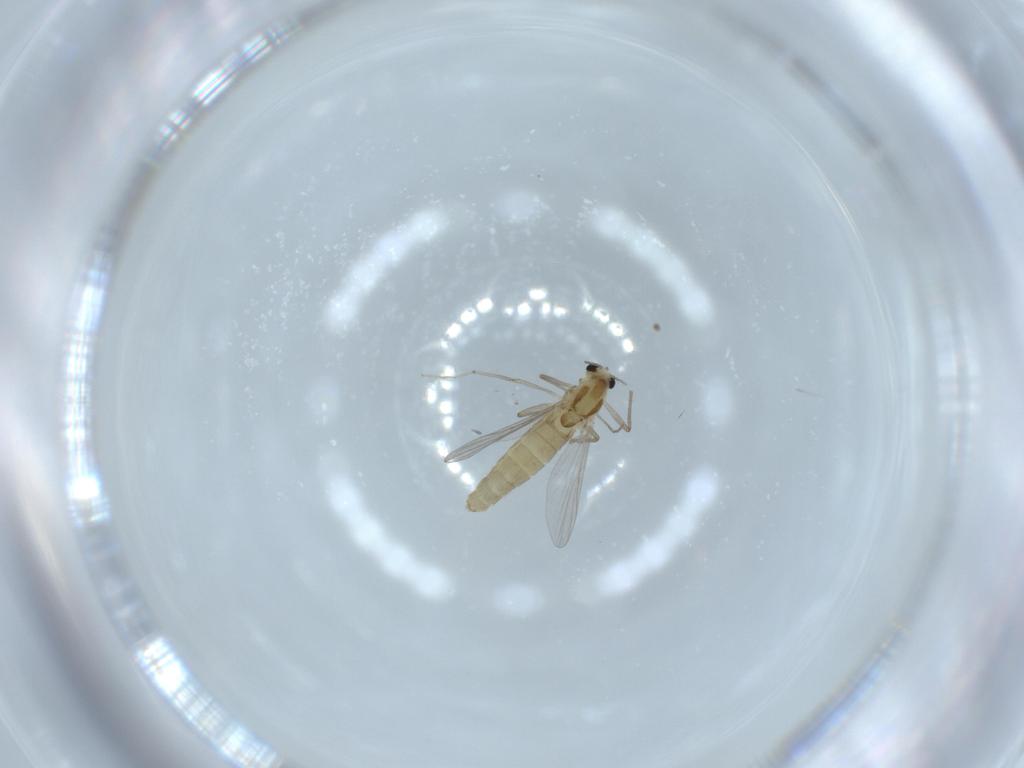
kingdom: Animalia
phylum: Arthropoda
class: Insecta
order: Diptera
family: Chironomidae
